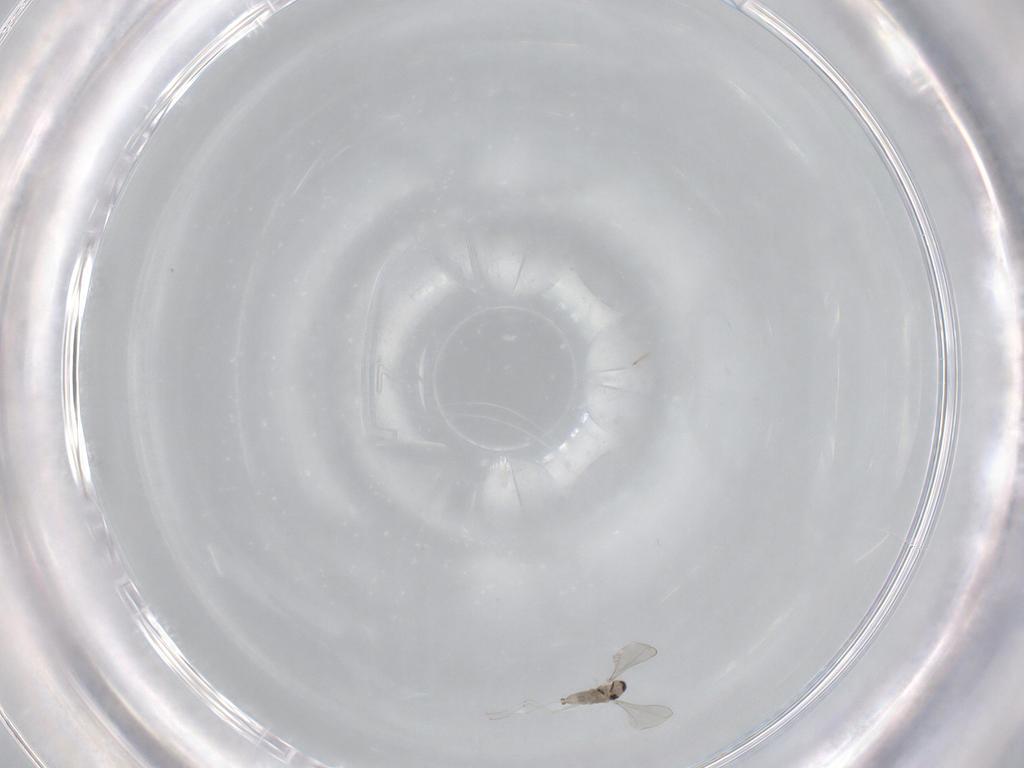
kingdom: Animalia
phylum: Arthropoda
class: Insecta
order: Diptera
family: Cecidomyiidae
